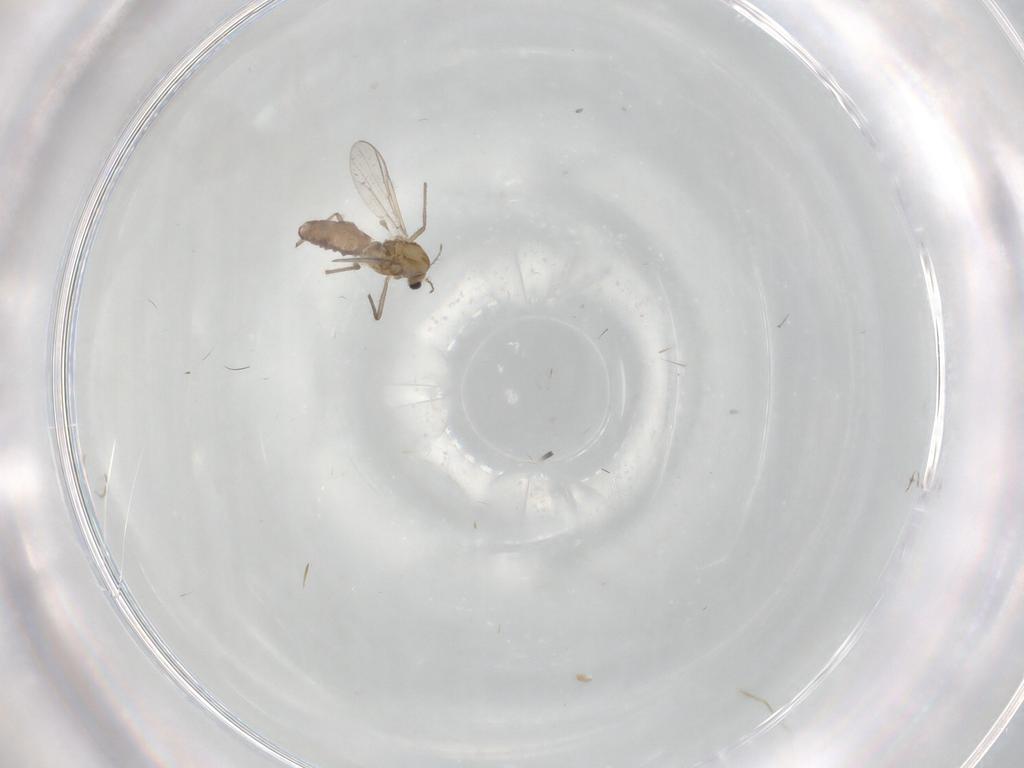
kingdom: Animalia
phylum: Arthropoda
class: Insecta
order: Diptera
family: Chironomidae
